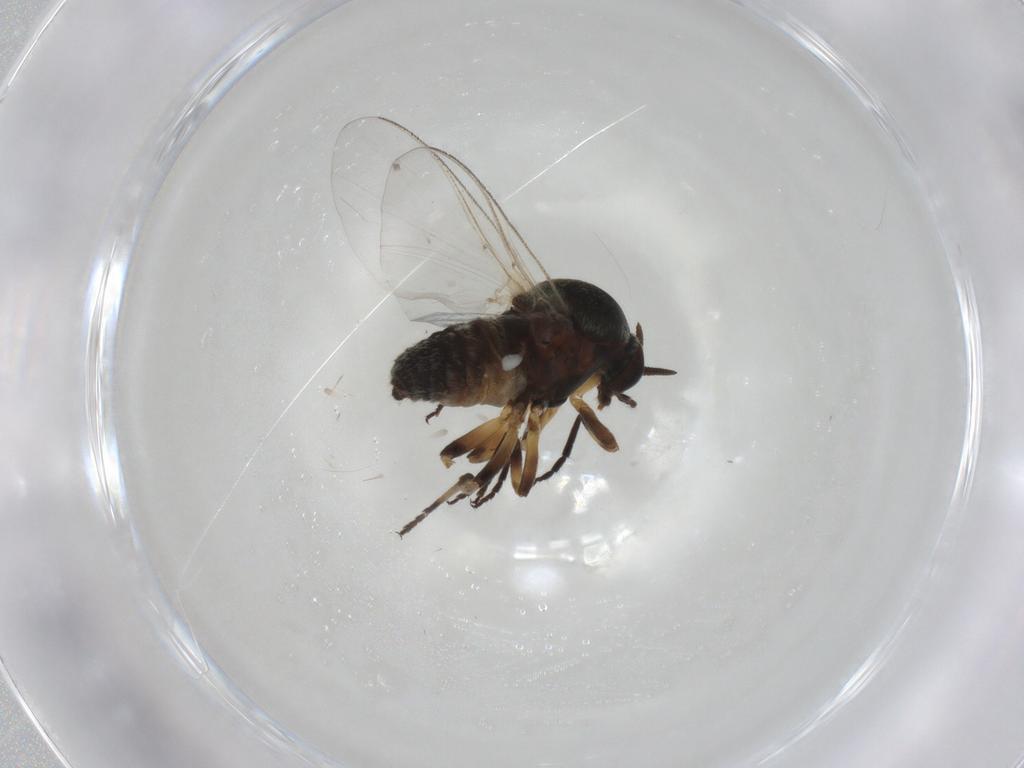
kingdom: Animalia
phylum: Arthropoda
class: Insecta
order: Diptera
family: Chironomidae
